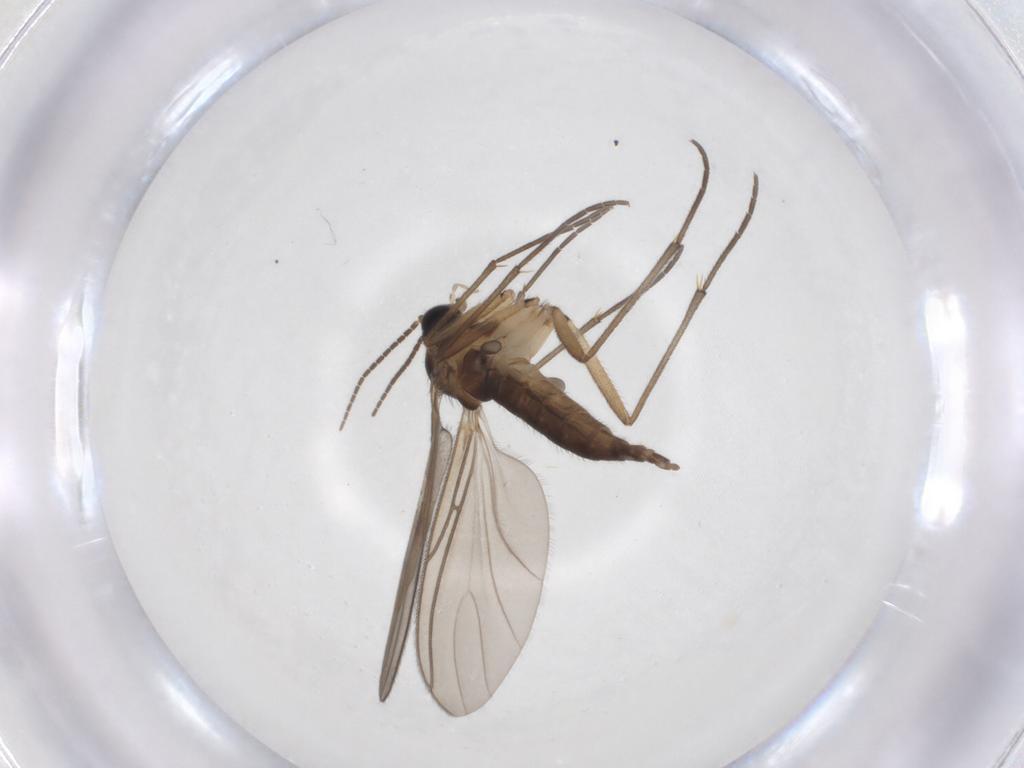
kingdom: Animalia
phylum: Arthropoda
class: Insecta
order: Diptera
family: Sciaridae
